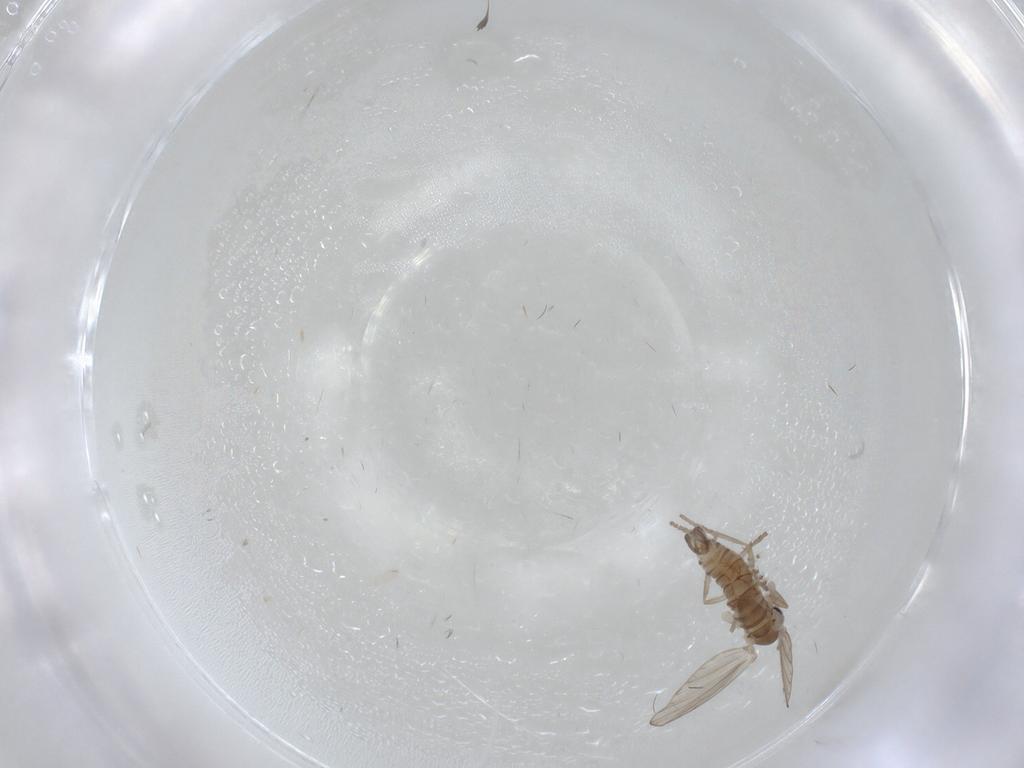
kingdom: Animalia
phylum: Arthropoda
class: Insecta
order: Diptera
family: Psychodidae
